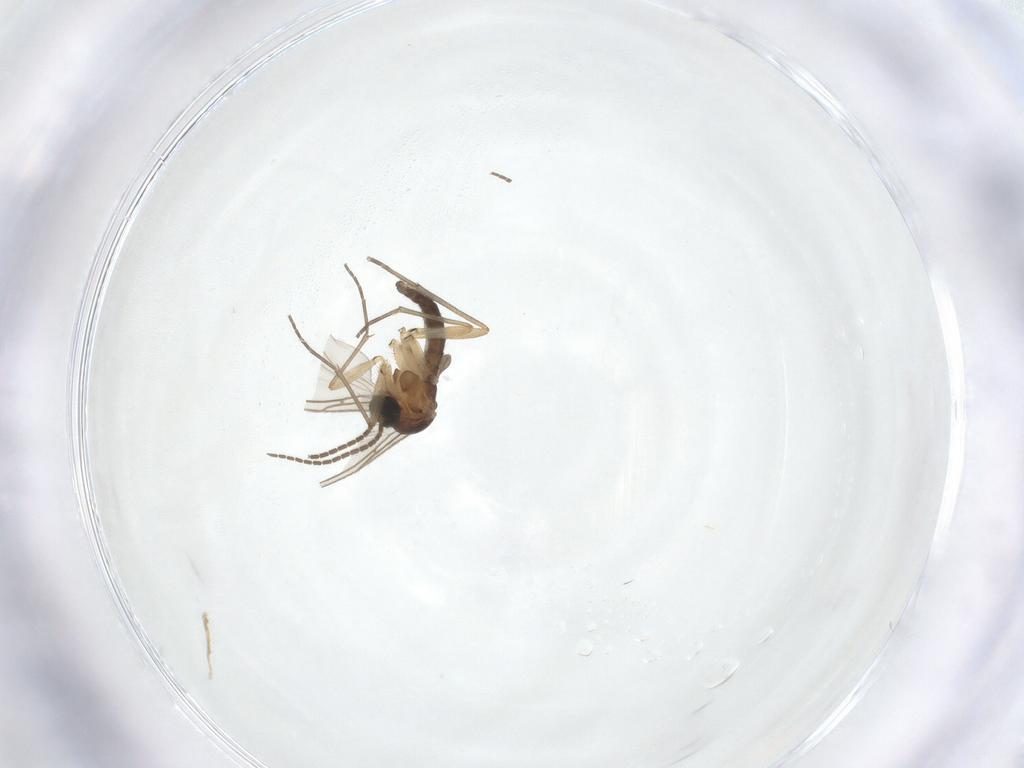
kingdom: Animalia
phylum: Arthropoda
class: Insecta
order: Diptera
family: Sciaridae
